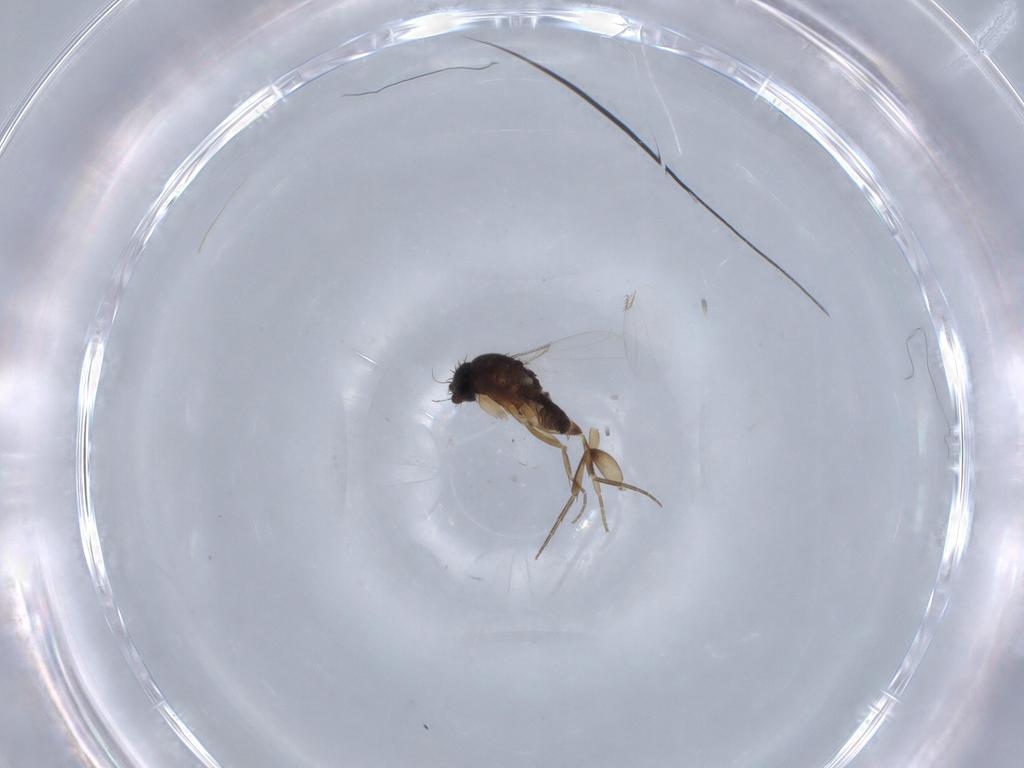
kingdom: Animalia
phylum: Arthropoda
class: Insecta
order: Diptera
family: Phoridae
